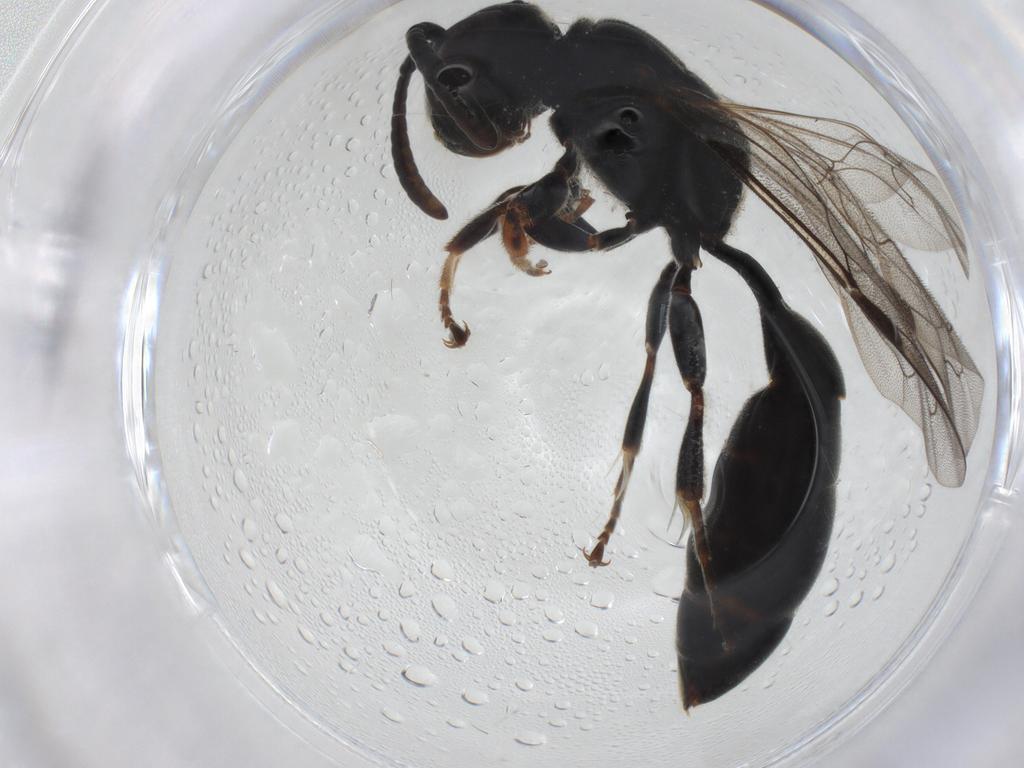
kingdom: Animalia
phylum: Arthropoda
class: Insecta
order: Hymenoptera
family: Crabronidae
